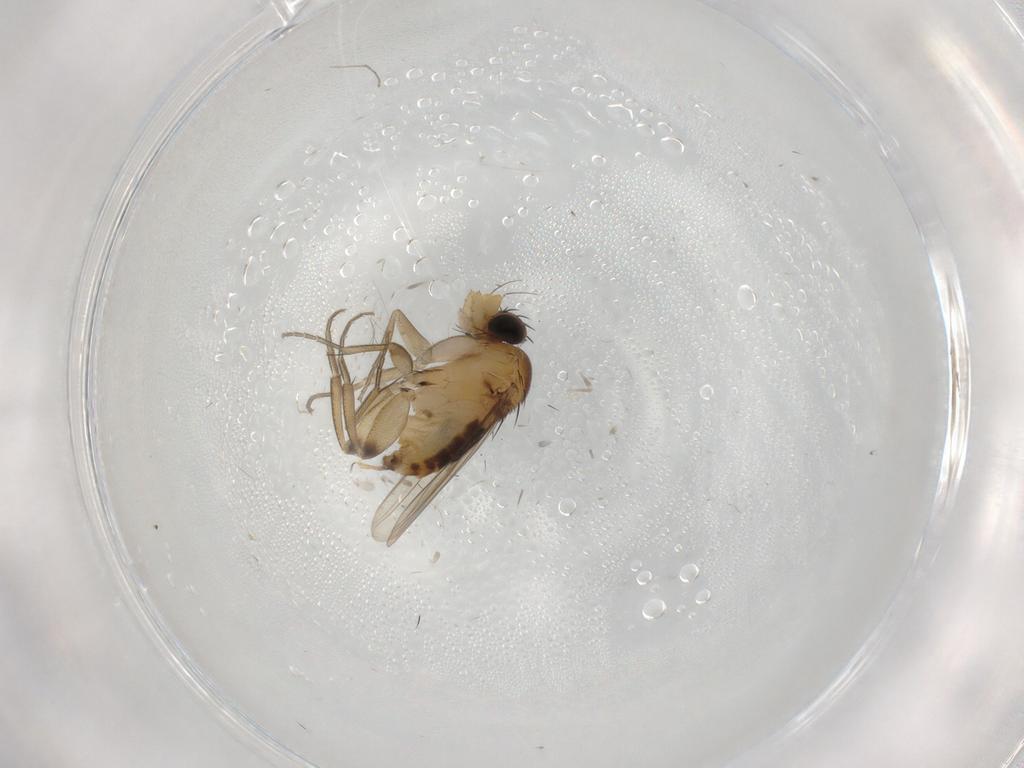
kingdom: Animalia
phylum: Arthropoda
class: Insecta
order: Diptera
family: Phoridae
